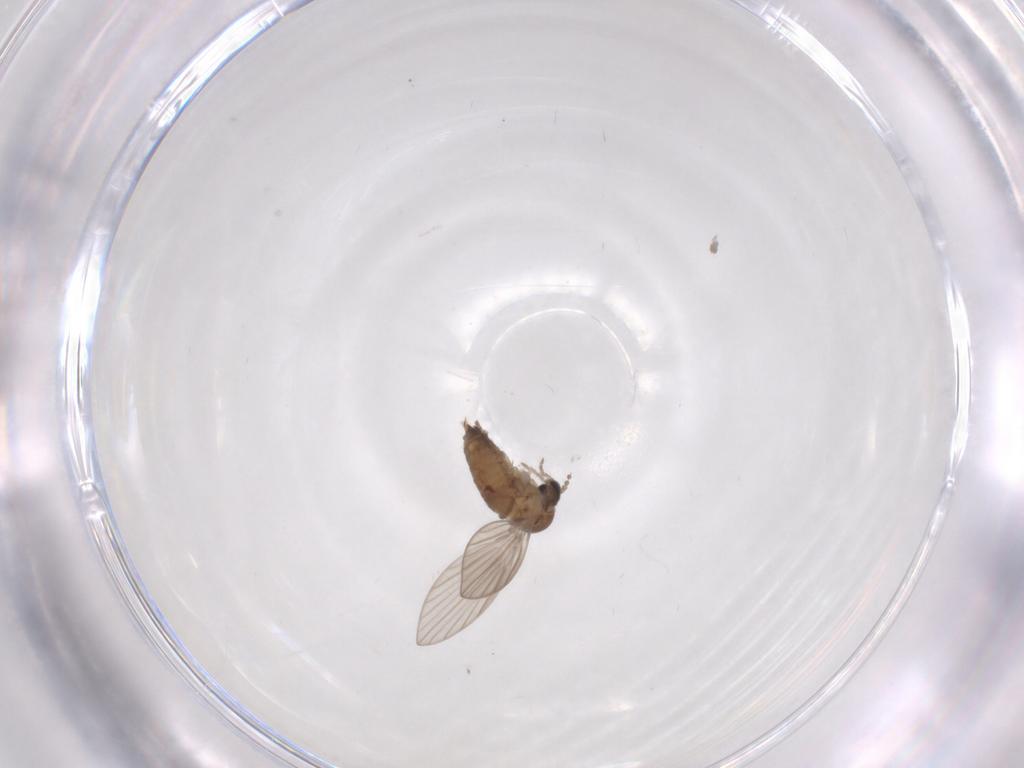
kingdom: Animalia
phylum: Arthropoda
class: Insecta
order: Diptera
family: Psychodidae
